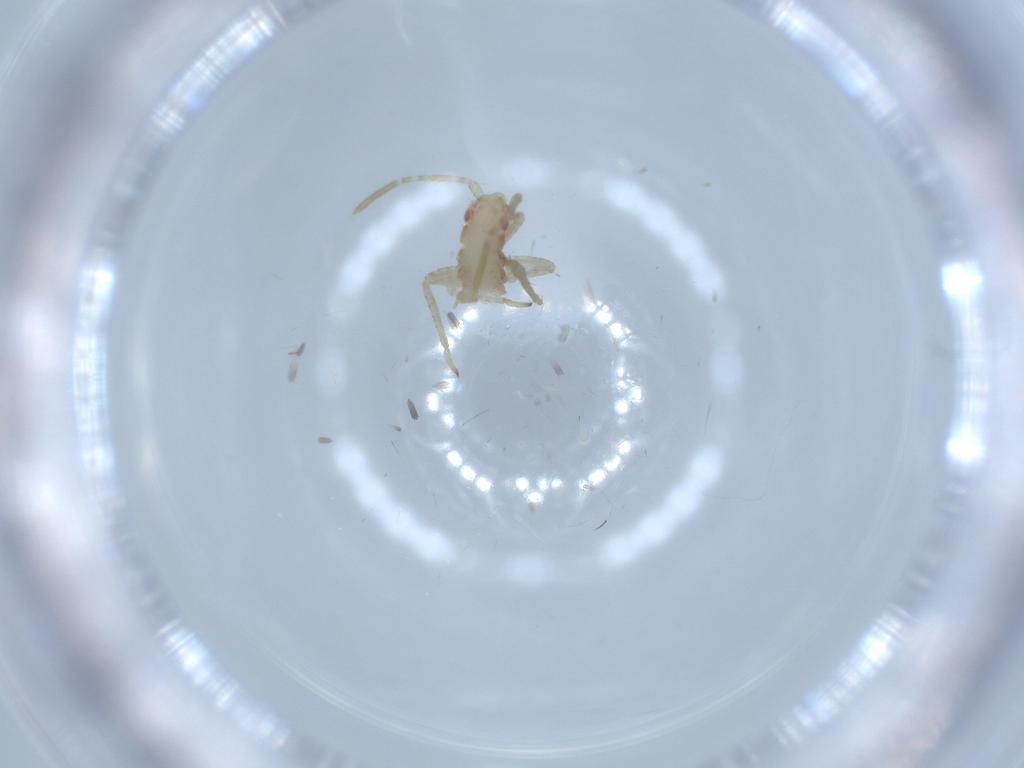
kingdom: Animalia
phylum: Arthropoda
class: Insecta
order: Hemiptera
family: Miridae
